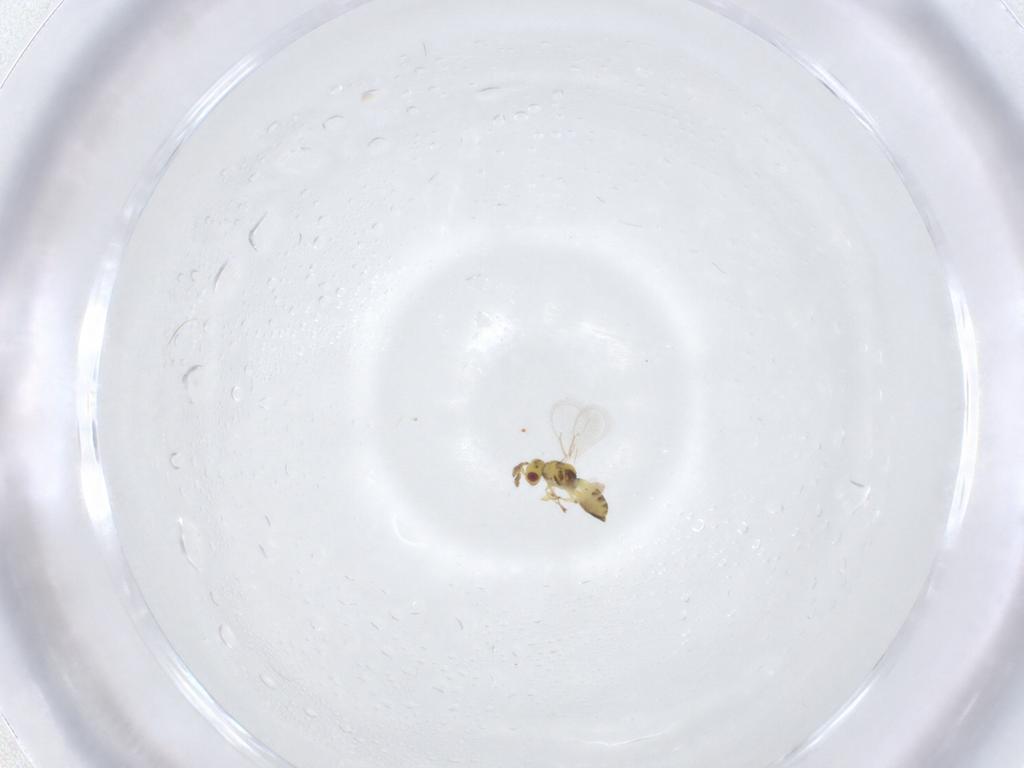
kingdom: Animalia
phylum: Arthropoda
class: Insecta
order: Hymenoptera
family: Eulophidae
